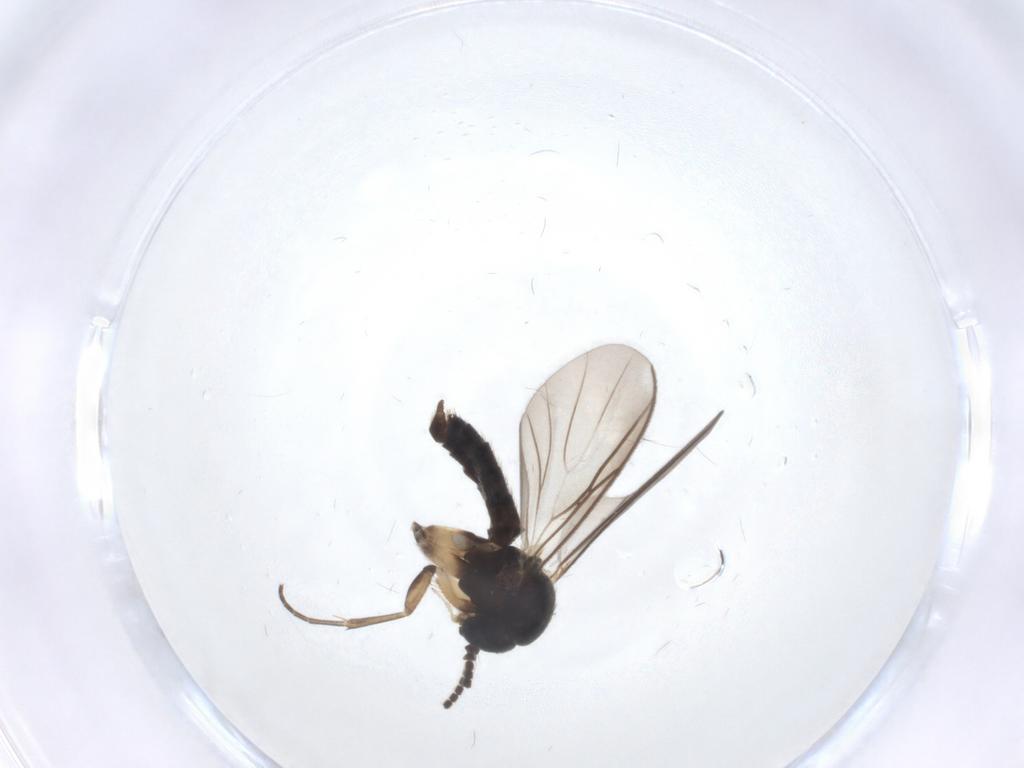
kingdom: Animalia
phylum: Arthropoda
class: Insecta
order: Diptera
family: Mycetophilidae
